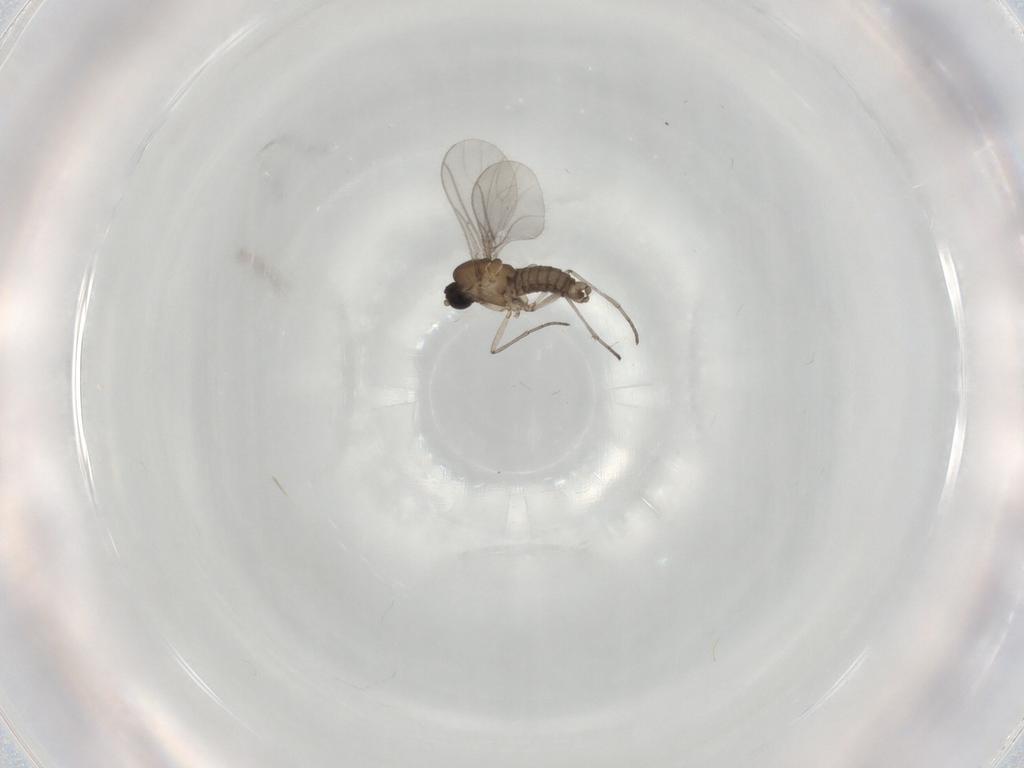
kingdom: Animalia
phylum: Arthropoda
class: Insecta
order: Diptera
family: Sciaridae
